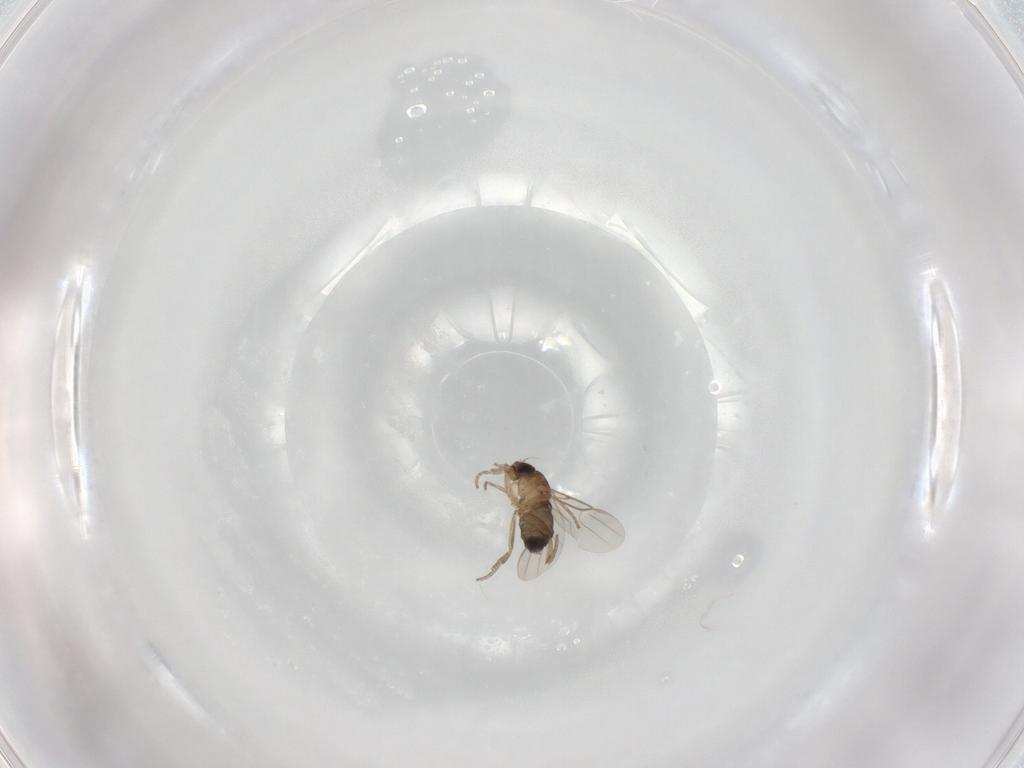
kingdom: Animalia
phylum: Arthropoda
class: Insecta
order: Diptera
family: Phoridae
